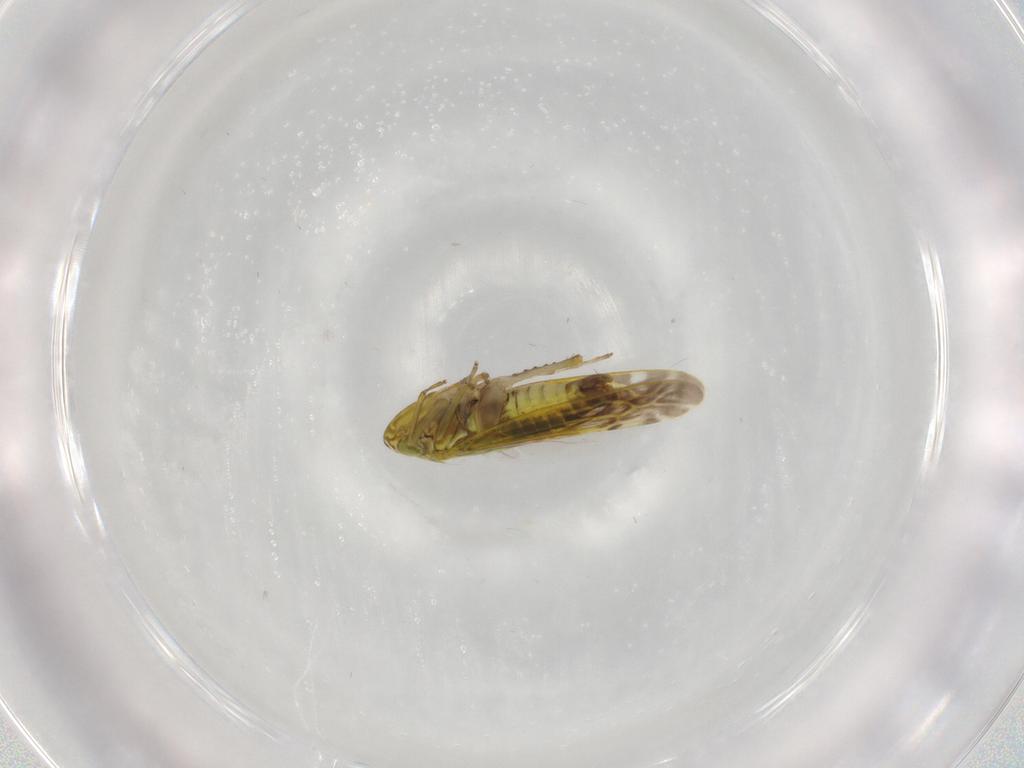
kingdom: Animalia
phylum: Arthropoda
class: Insecta
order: Hemiptera
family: Cicadellidae
